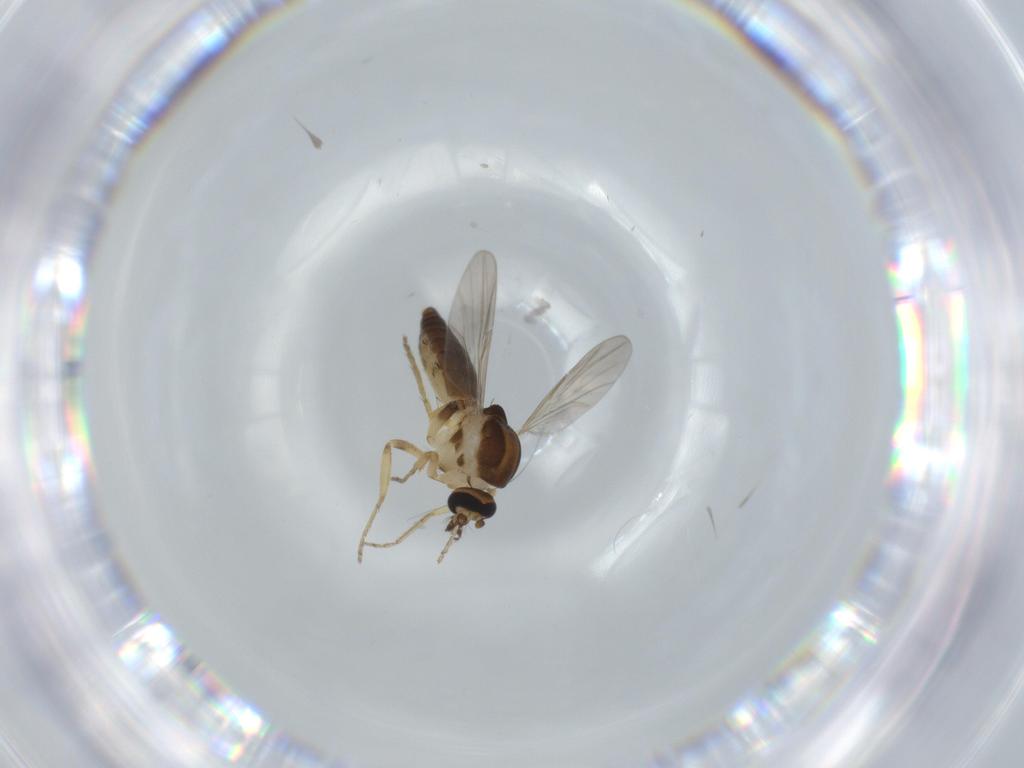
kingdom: Animalia
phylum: Arthropoda
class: Insecta
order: Diptera
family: Ceratopogonidae
